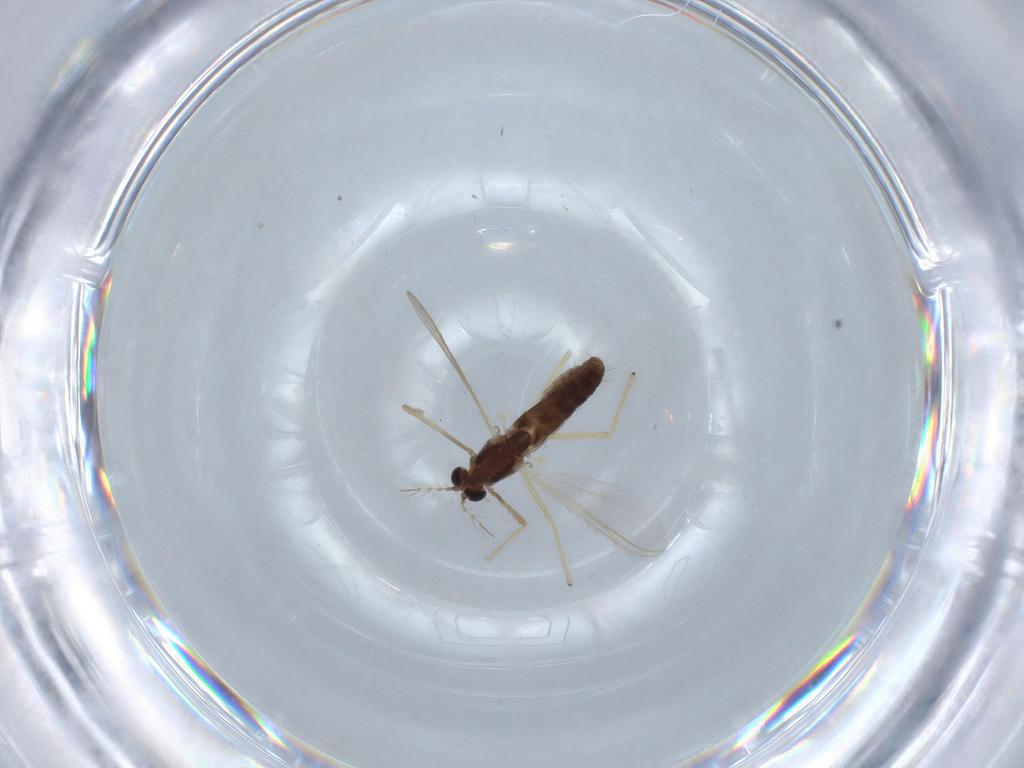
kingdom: Animalia
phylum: Arthropoda
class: Insecta
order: Diptera
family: Chironomidae
